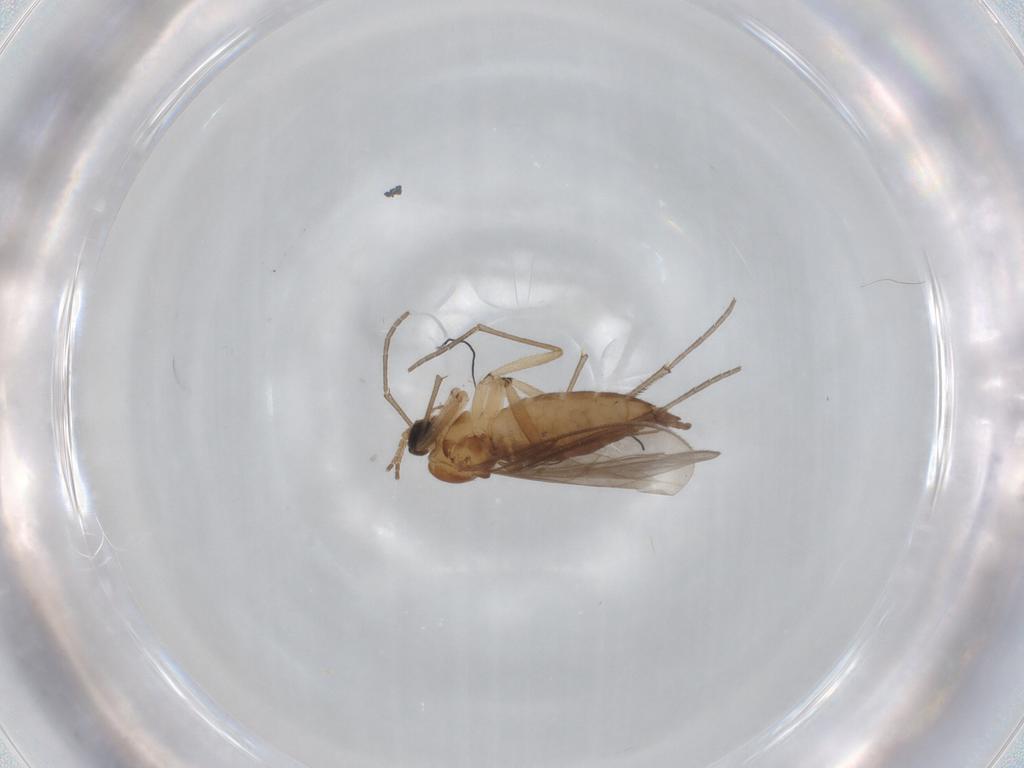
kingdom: Animalia
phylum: Arthropoda
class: Insecta
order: Diptera
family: Sciaridae
